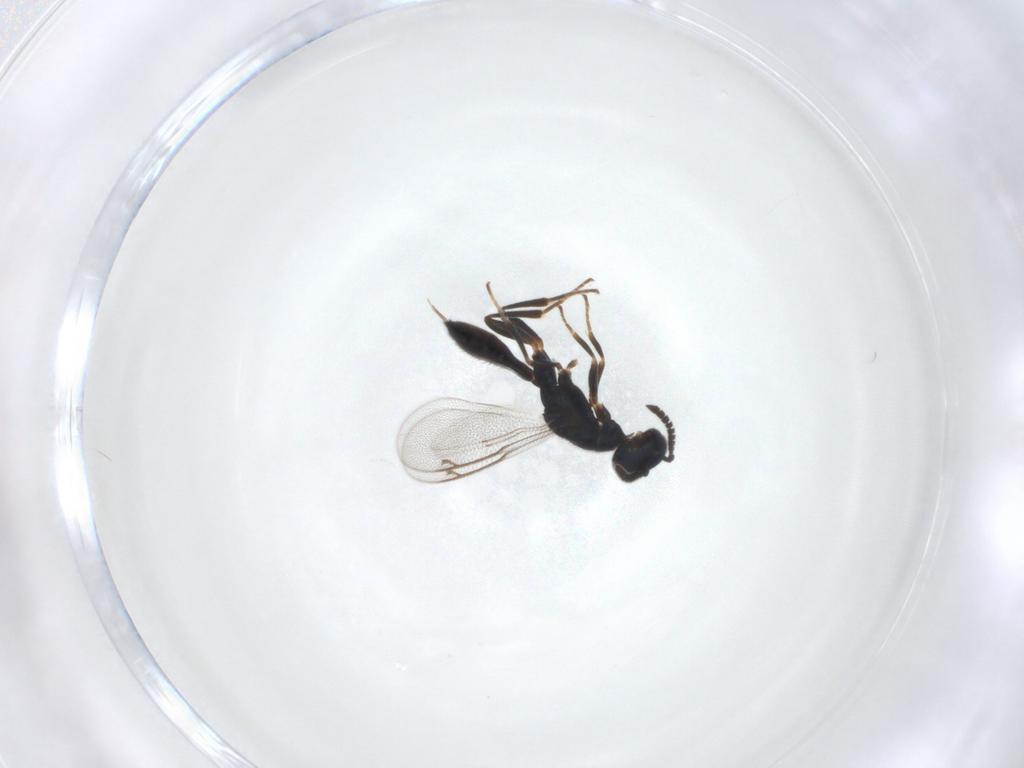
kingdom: Animalia
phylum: Arthropoda
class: Insecta
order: Hymenoptera
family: Cleonyminae
